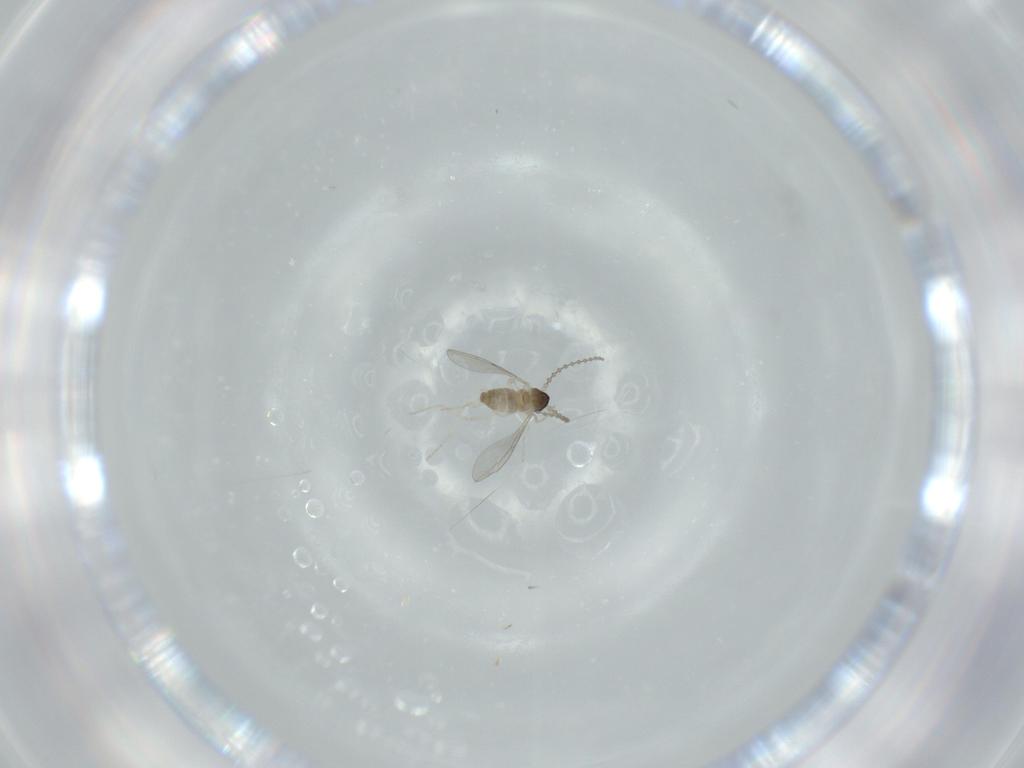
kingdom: Animalia
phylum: Arthropoda
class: Insecta
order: Diptera
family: Cecidomyiidae
